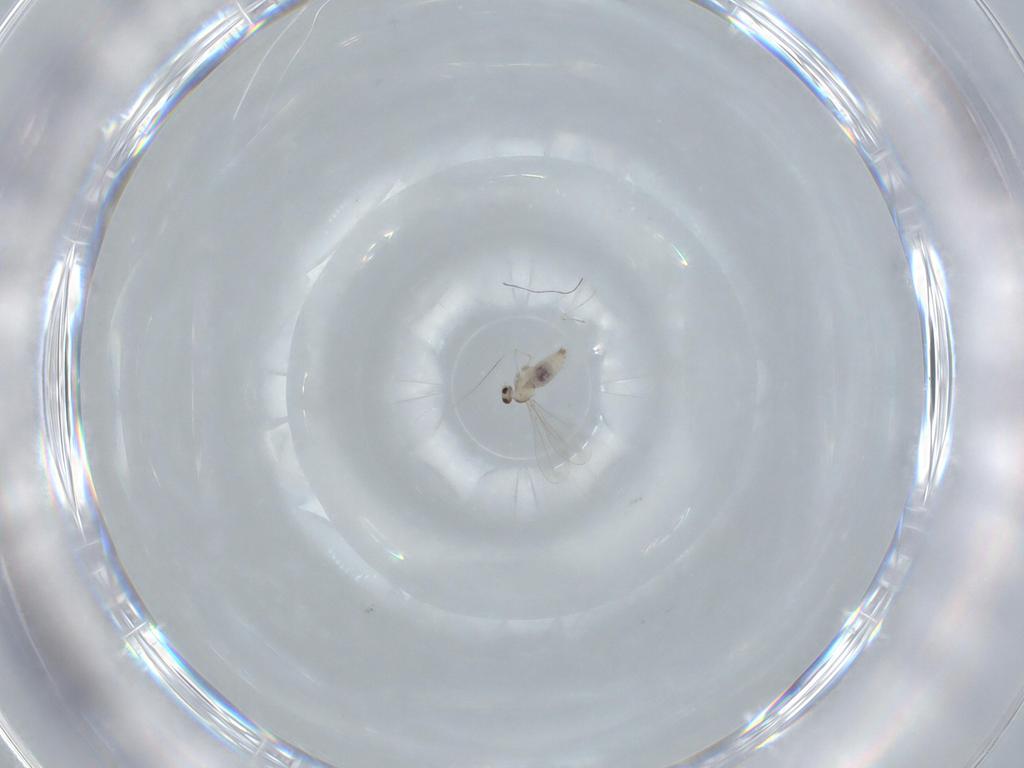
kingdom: Animalia
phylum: Arthropoda
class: Insecta
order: Diptera
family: Cecidomyiidae
